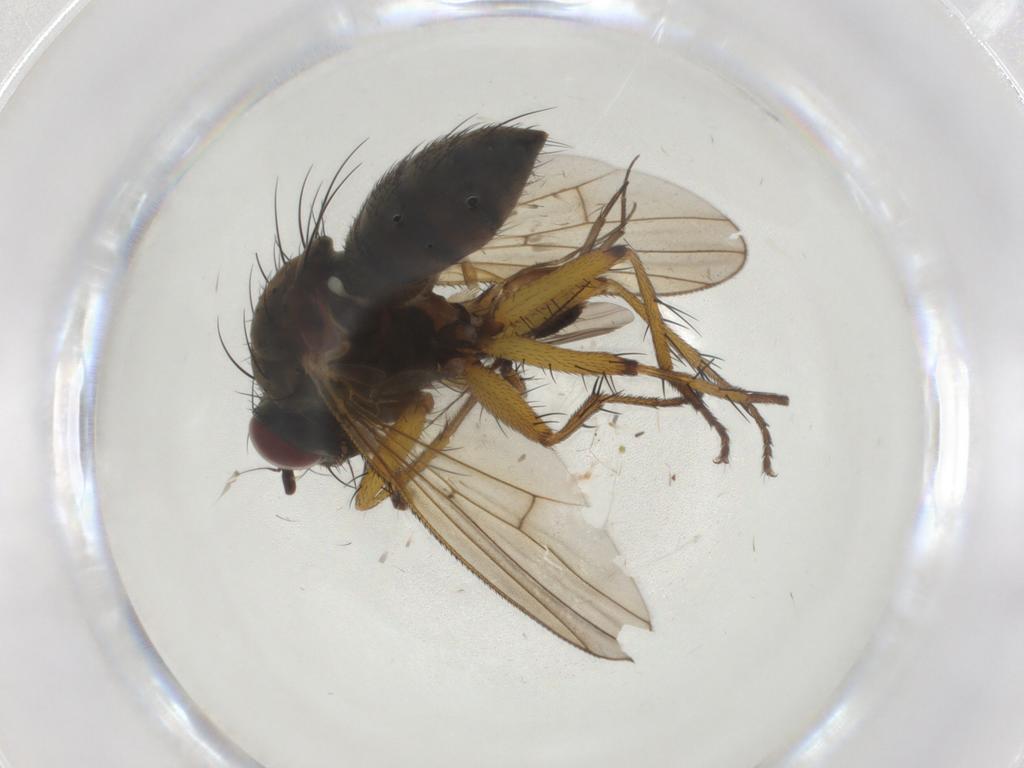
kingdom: Animalia
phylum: Arthropoda
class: Insecta
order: Diptera
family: Muscidae
